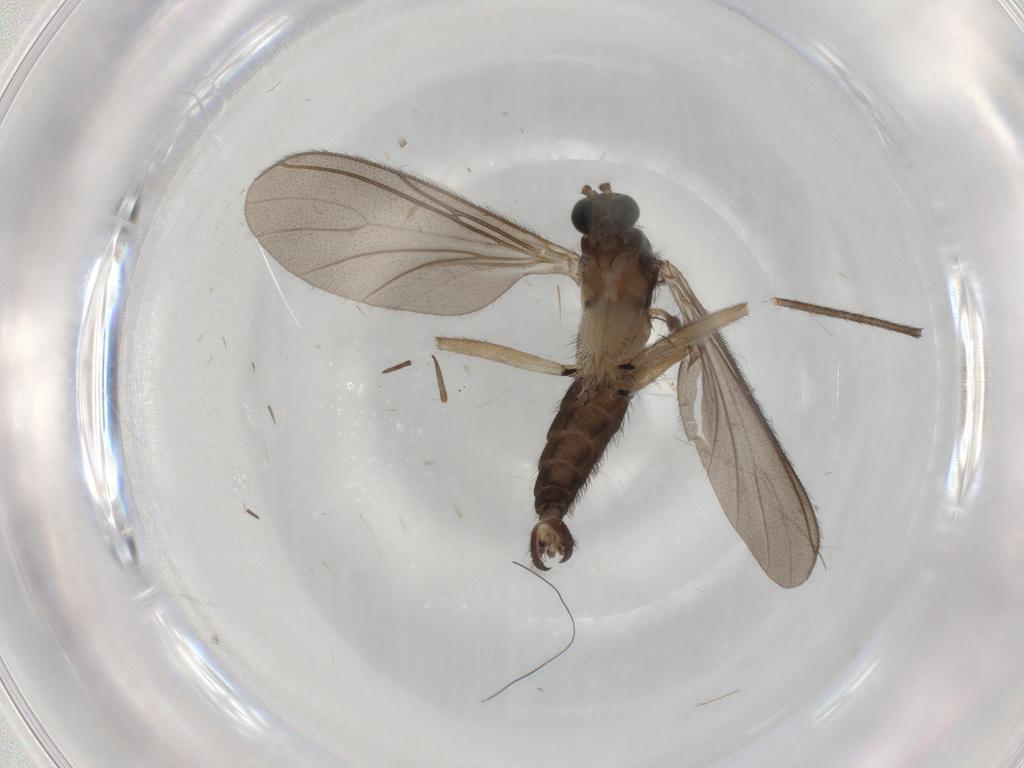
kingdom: Animalia
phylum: Arthropoda
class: Insecta
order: Diptera
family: Sciaridae
